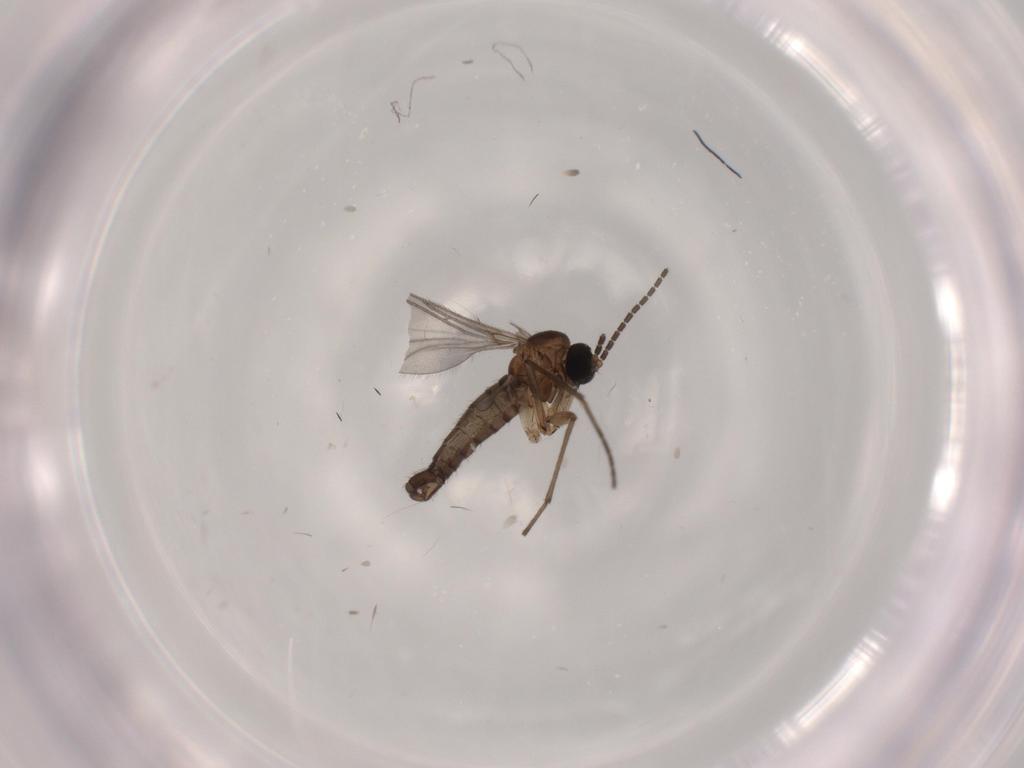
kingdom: Animalia
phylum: Arthropoda
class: Insecta
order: Diptera
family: Sciaridae
